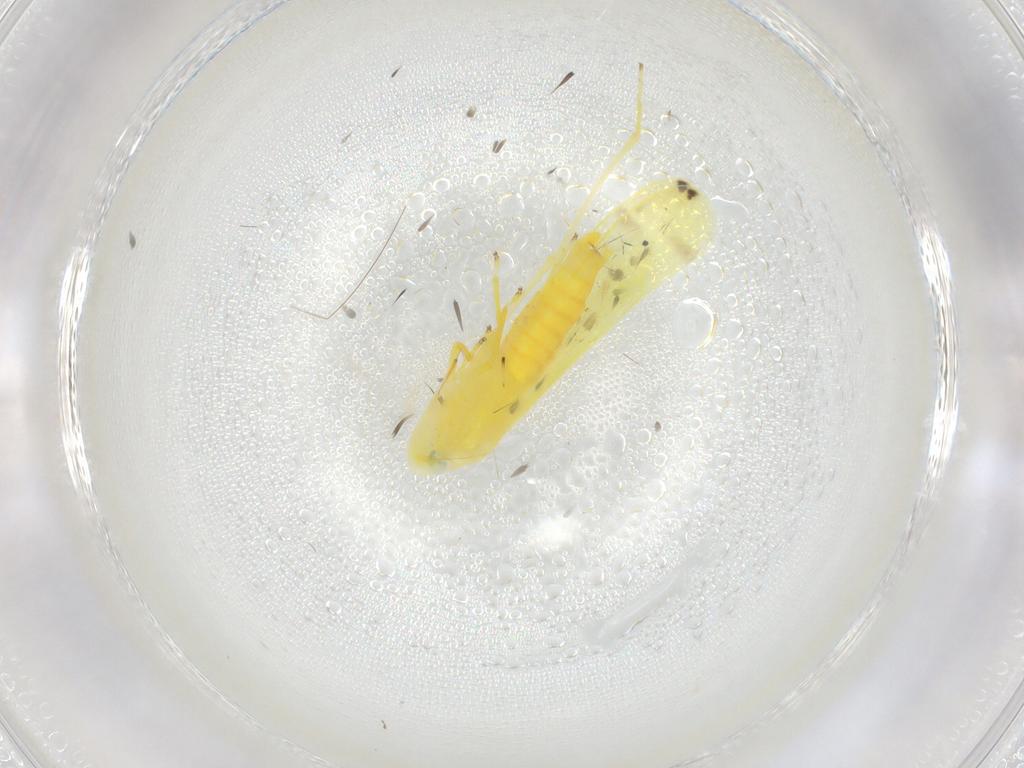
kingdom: Animalia
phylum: Arthropoda
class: Insecta
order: Hemiptera
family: Cicadellidae
